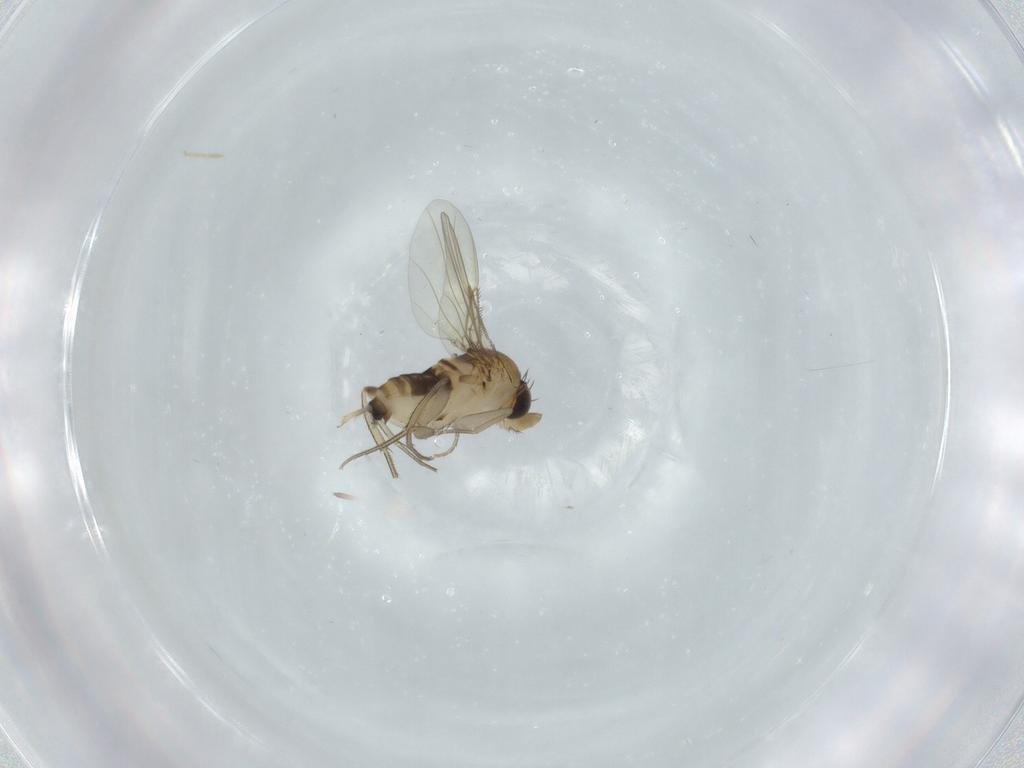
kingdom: Animalia
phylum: Arthropoda
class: Insecta
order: Diptera
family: Phoridae
